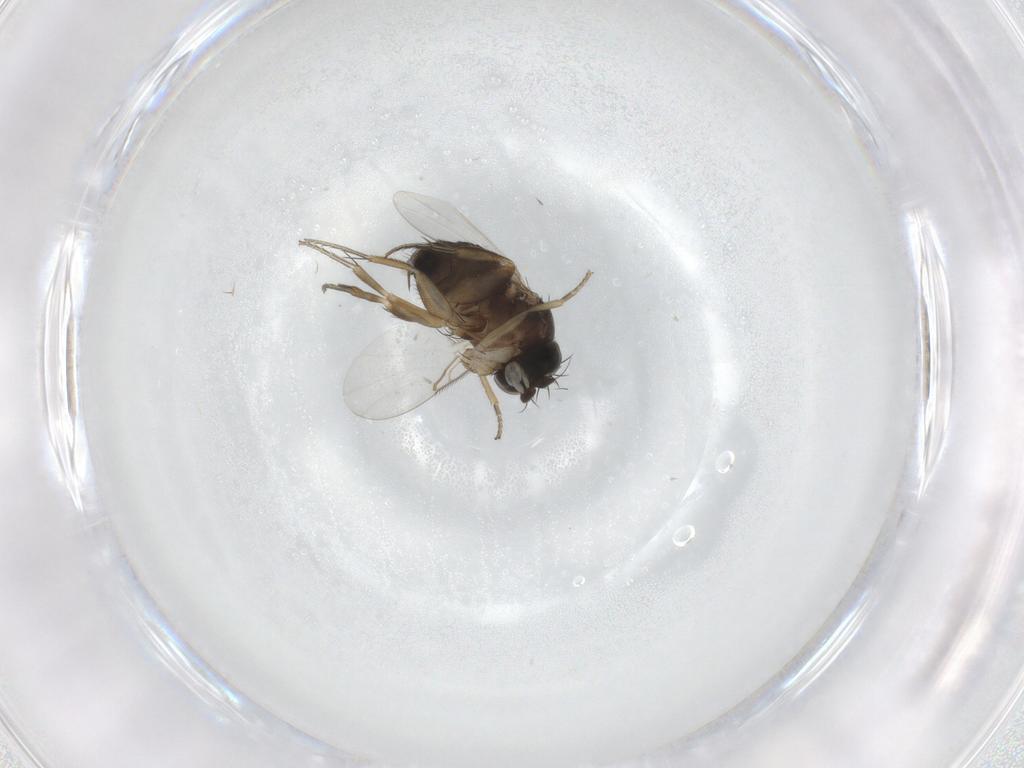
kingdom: Animalia
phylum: Arthropoda
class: Insecta
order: Diptera
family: Sciaridae
